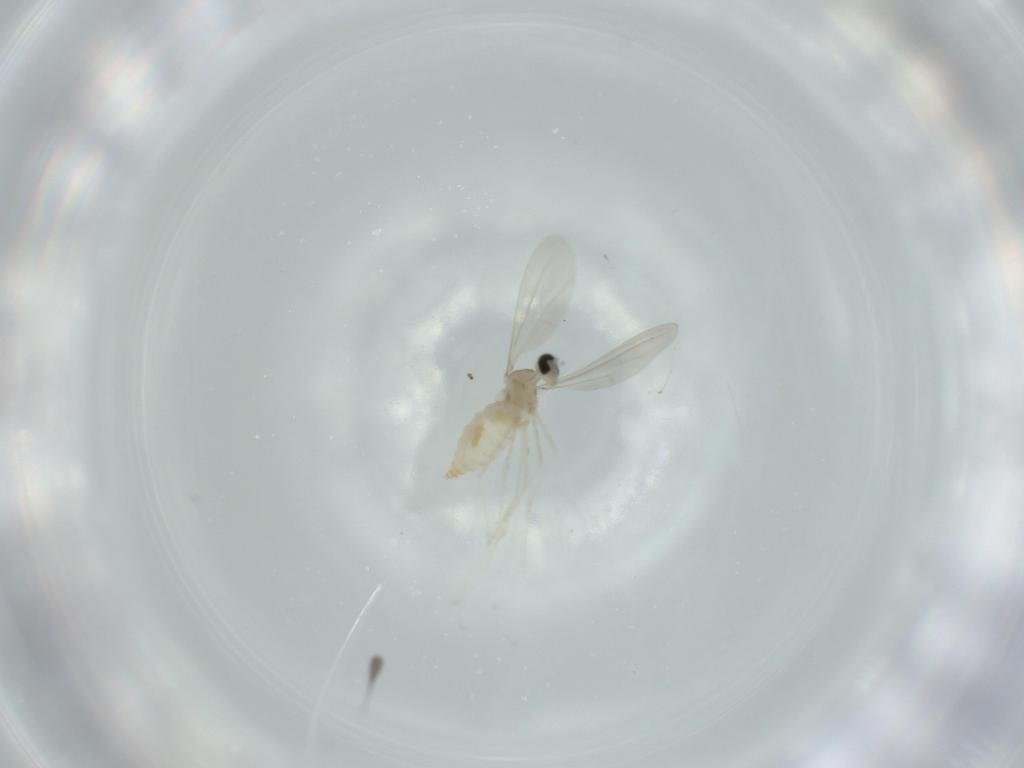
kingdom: Animalia
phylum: Arthropoda
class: Insecta
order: Diptera
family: Cecidomyiidae
